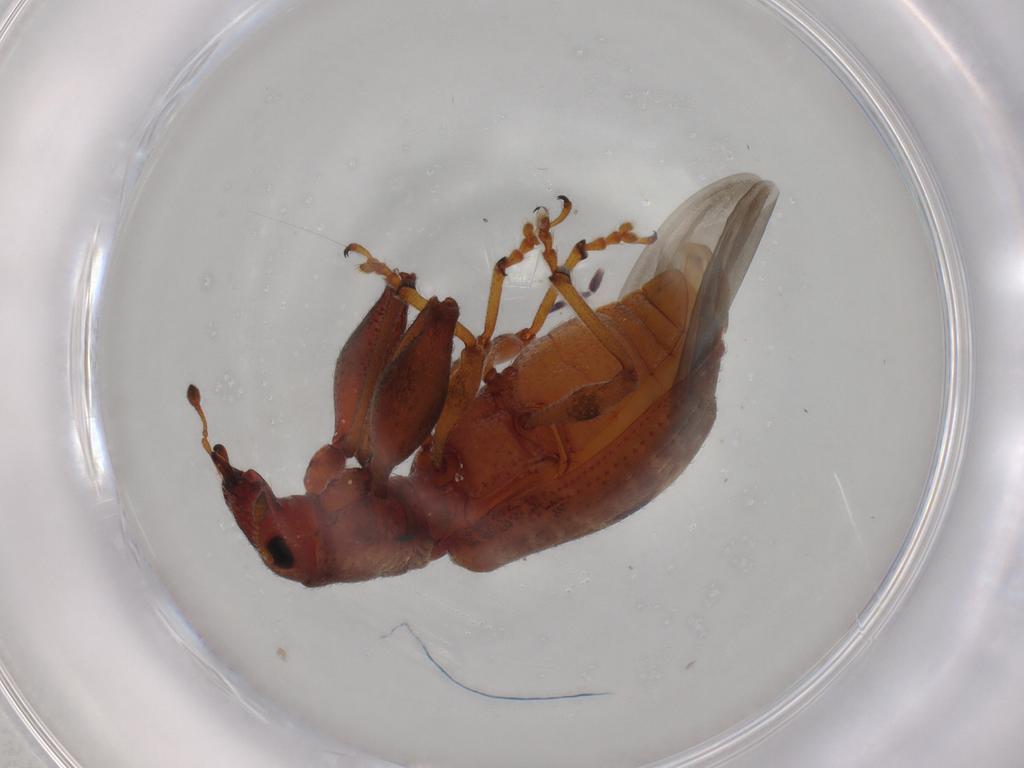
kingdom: Animalia
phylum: Arthropoda
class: Insecta
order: Coleoptera
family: Curculionidae
